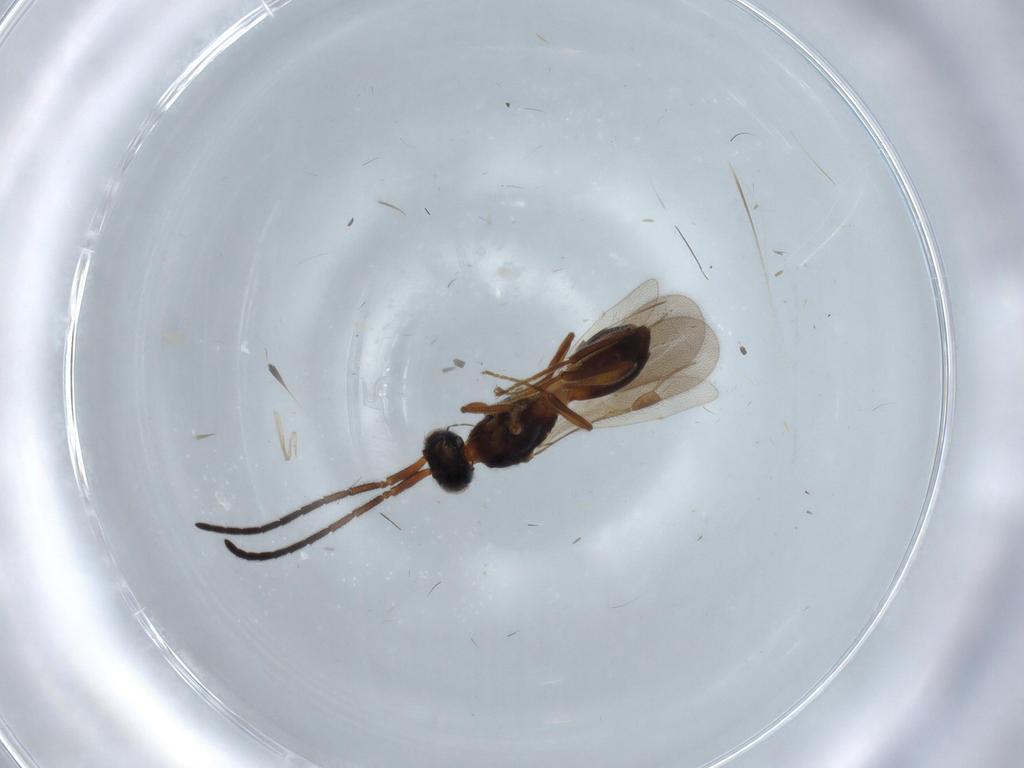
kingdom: Animalia
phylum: Arthropoda
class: Insecta
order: Hymenoptera
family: Megaspilidae
